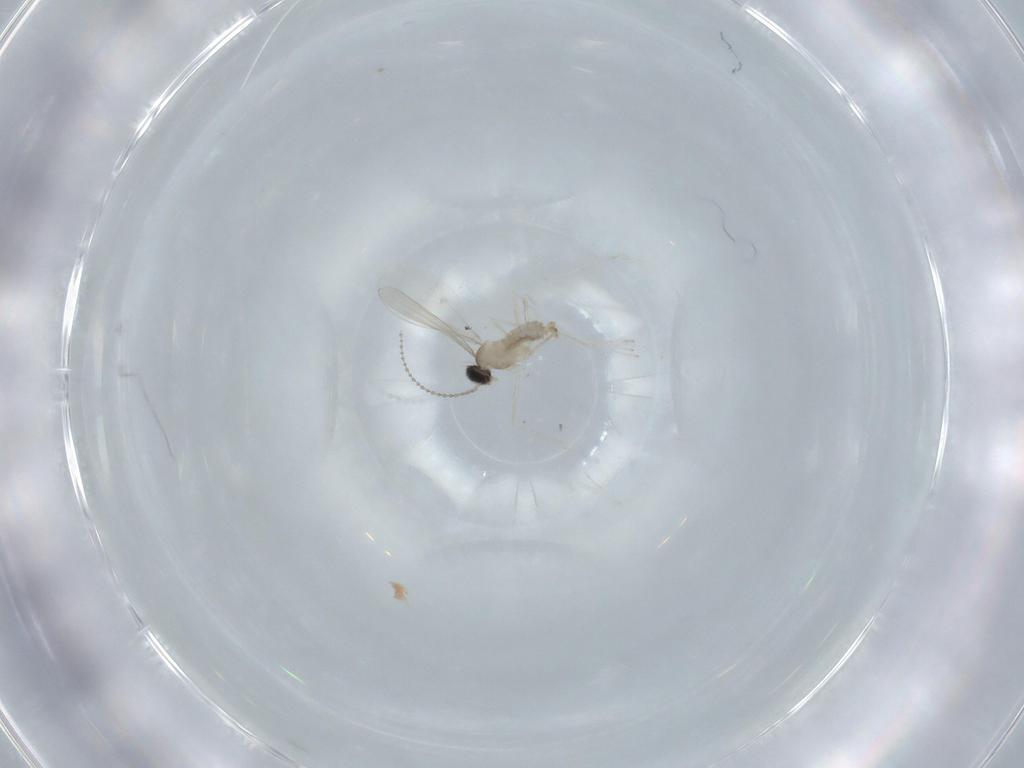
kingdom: Animalia
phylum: Arthropoda
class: Insecta
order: Diptera
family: Cecidomyiidae
